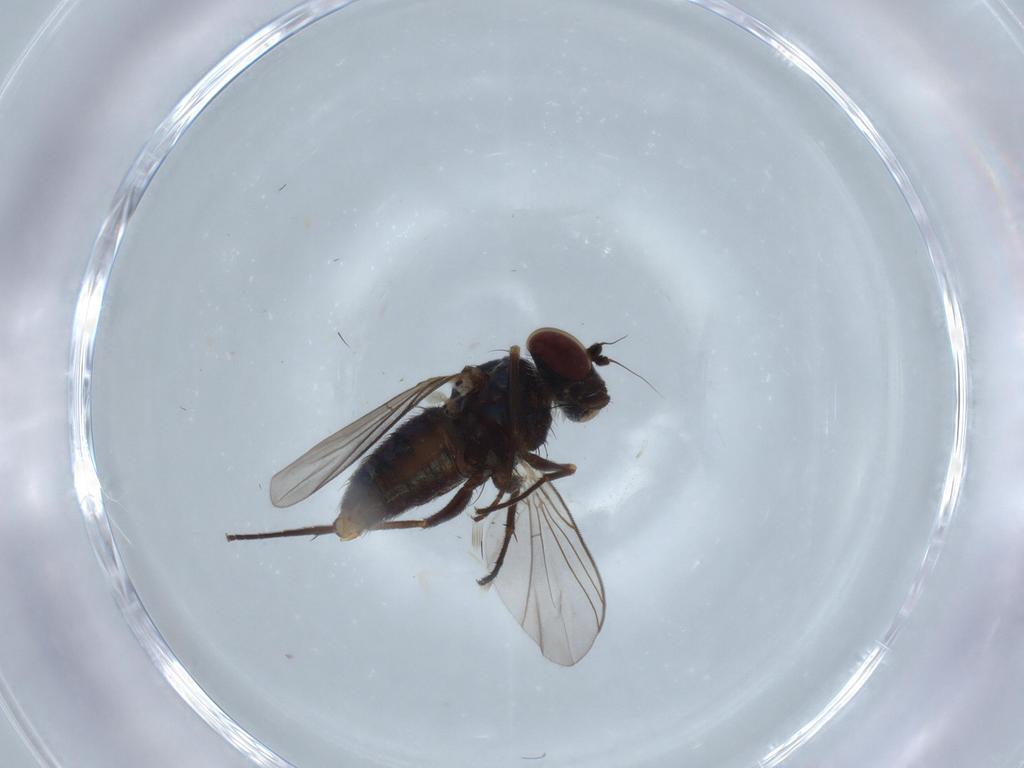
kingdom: Animalia
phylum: Arthropoda
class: Insecta
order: Diptera
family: Dolichopodidae
